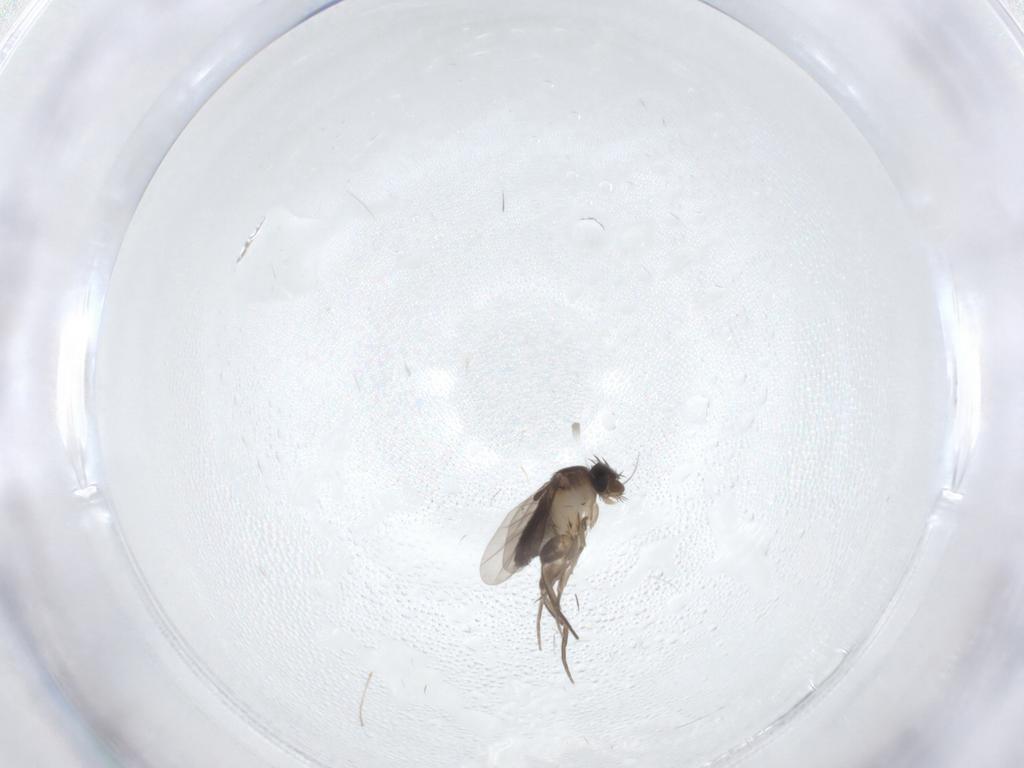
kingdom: Animalia
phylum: Arthropoda
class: Insecta
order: Diptera
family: Phoridae
